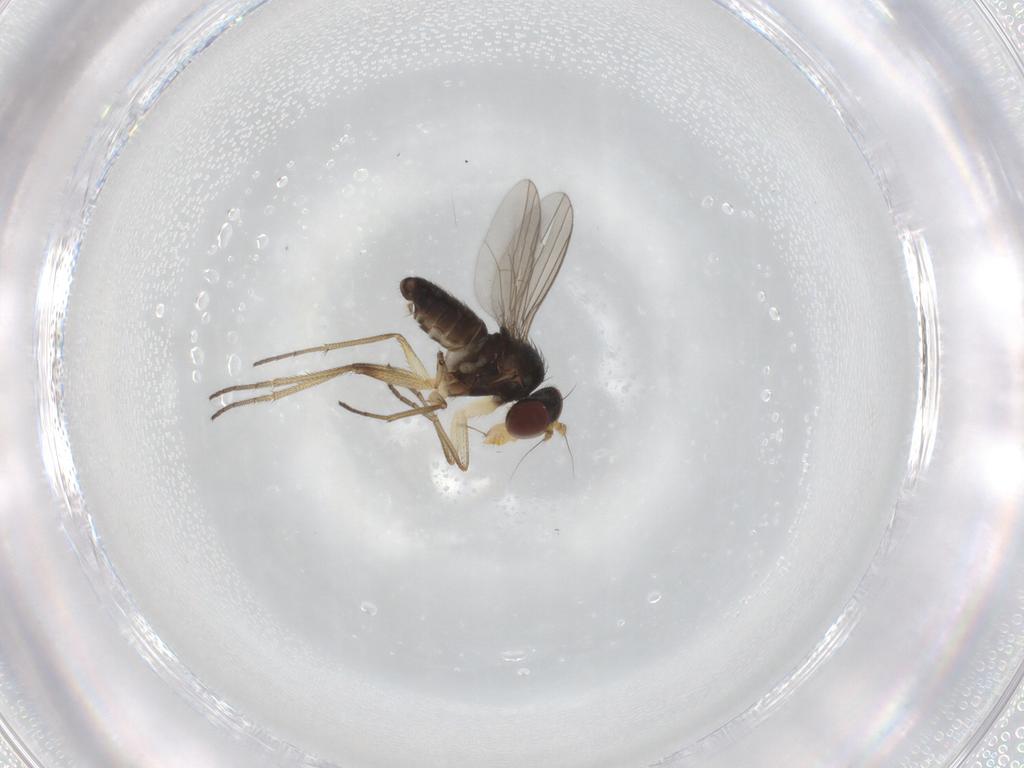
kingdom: Animalia
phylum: Arthropoda
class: Insecta
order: Diptera
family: Dolichopodidae
